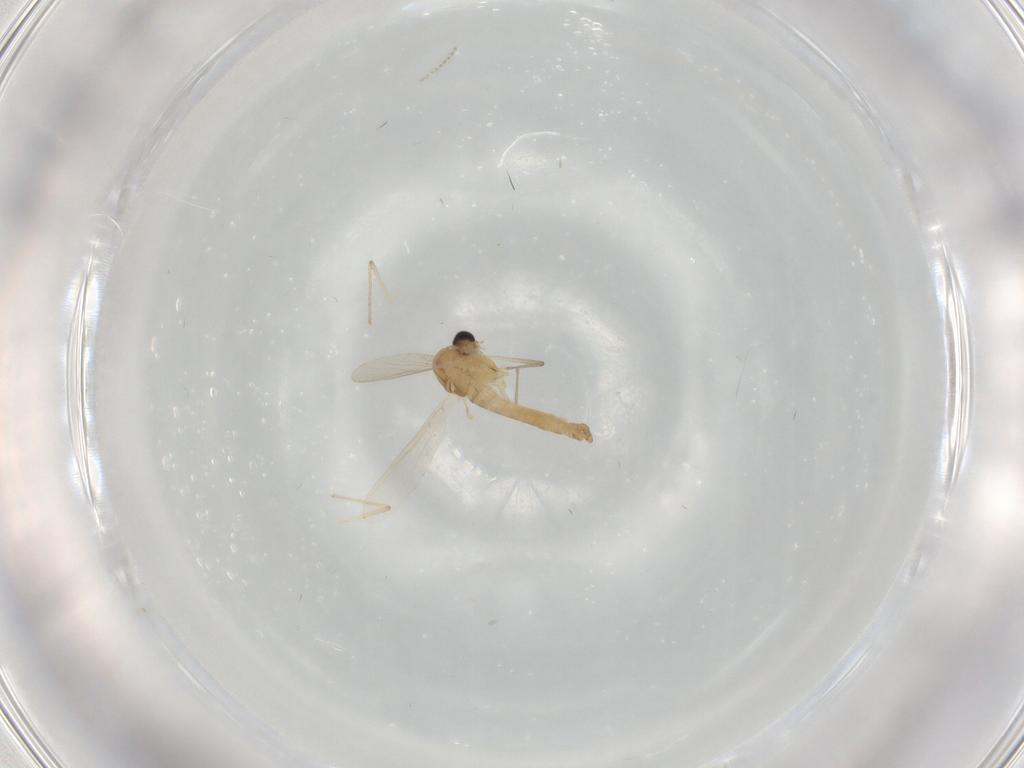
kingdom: Animalia
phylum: Arthropoda
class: Insecta
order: Diptera
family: Chironomidae
